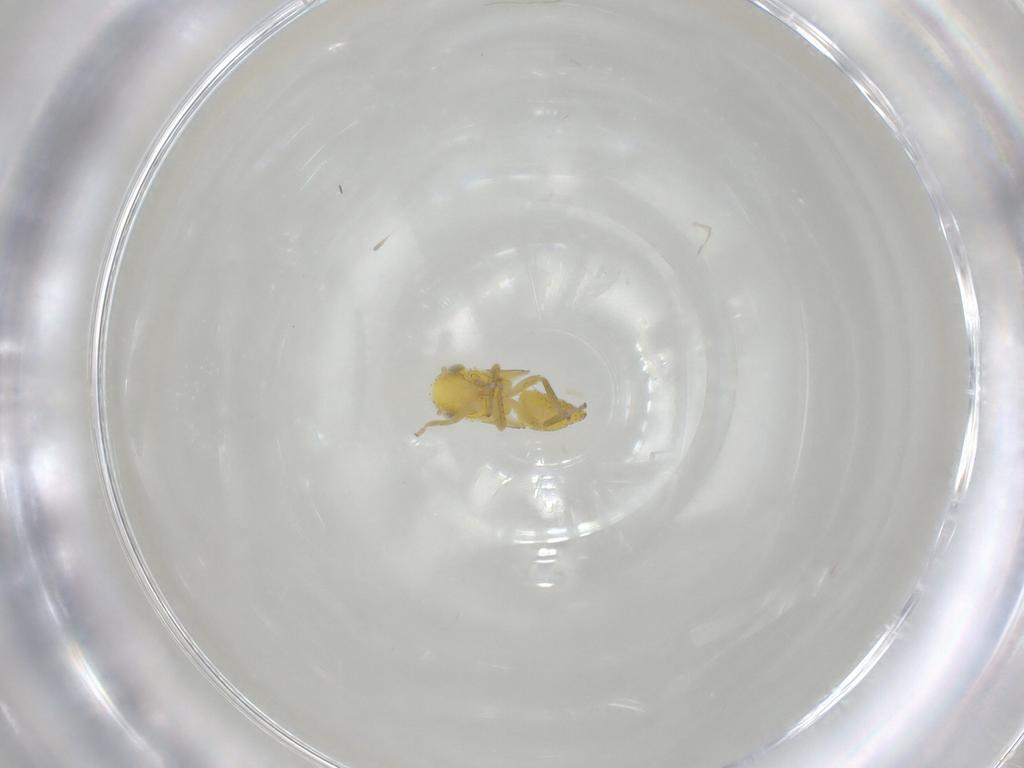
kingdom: Animalia
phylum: Arthropoda
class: Insecta
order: Hemiptera
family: Cicadellidae
